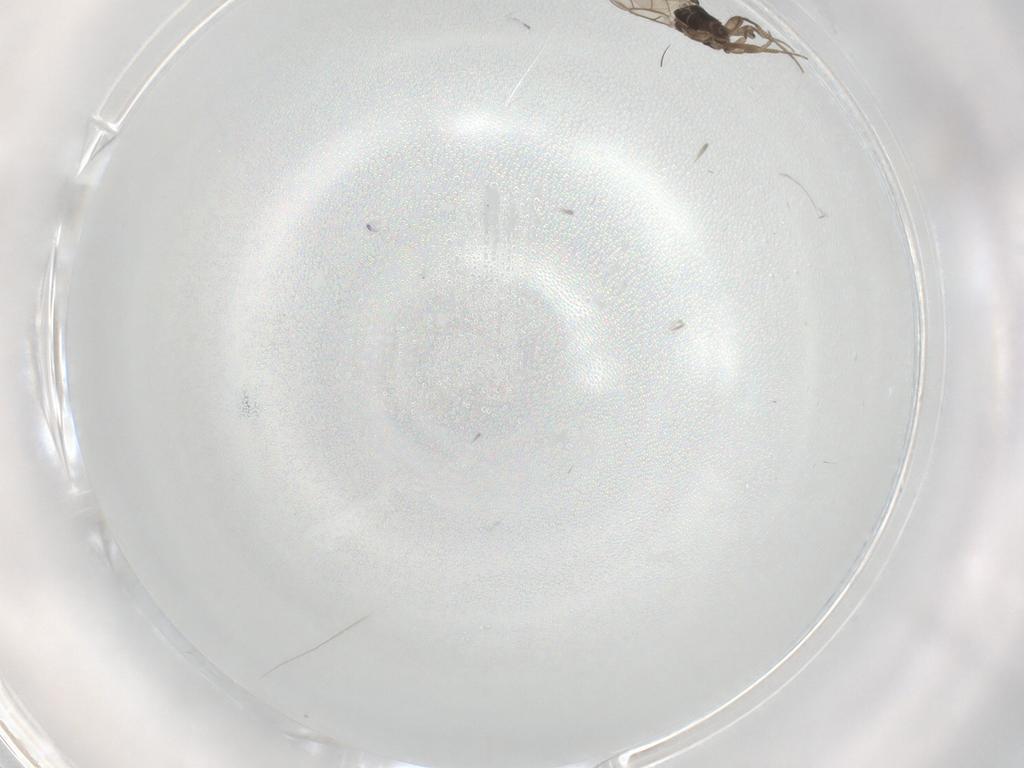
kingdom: Animalia
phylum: Arthropoda
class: Insecta
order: Diptera
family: Phoridae
